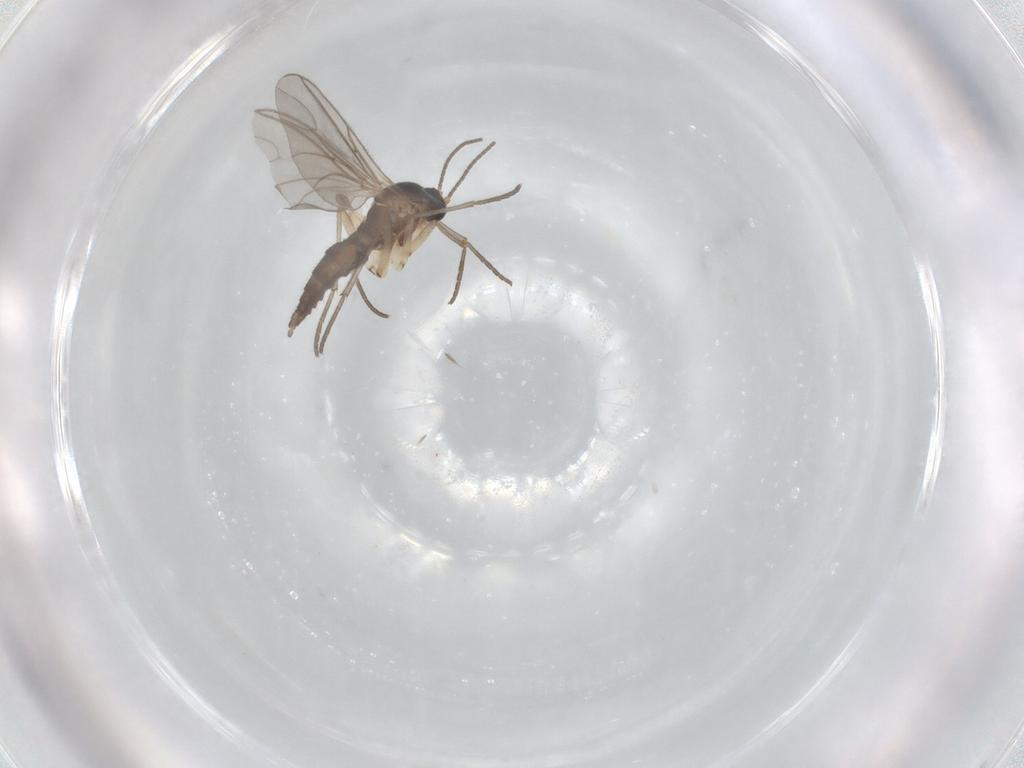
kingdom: Animalia
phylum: Arthropoda
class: Insecta
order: Diptera
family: Sciaridae
